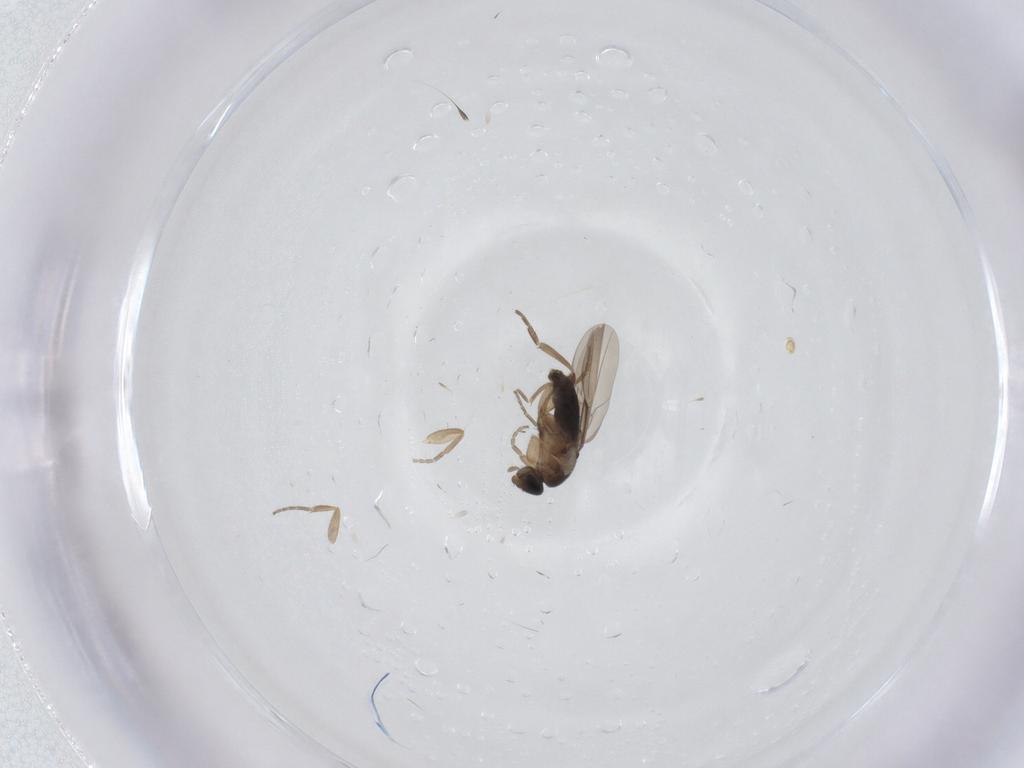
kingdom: Animalia
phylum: Arthropoda
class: Insecta
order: Diptera
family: Phoridae
